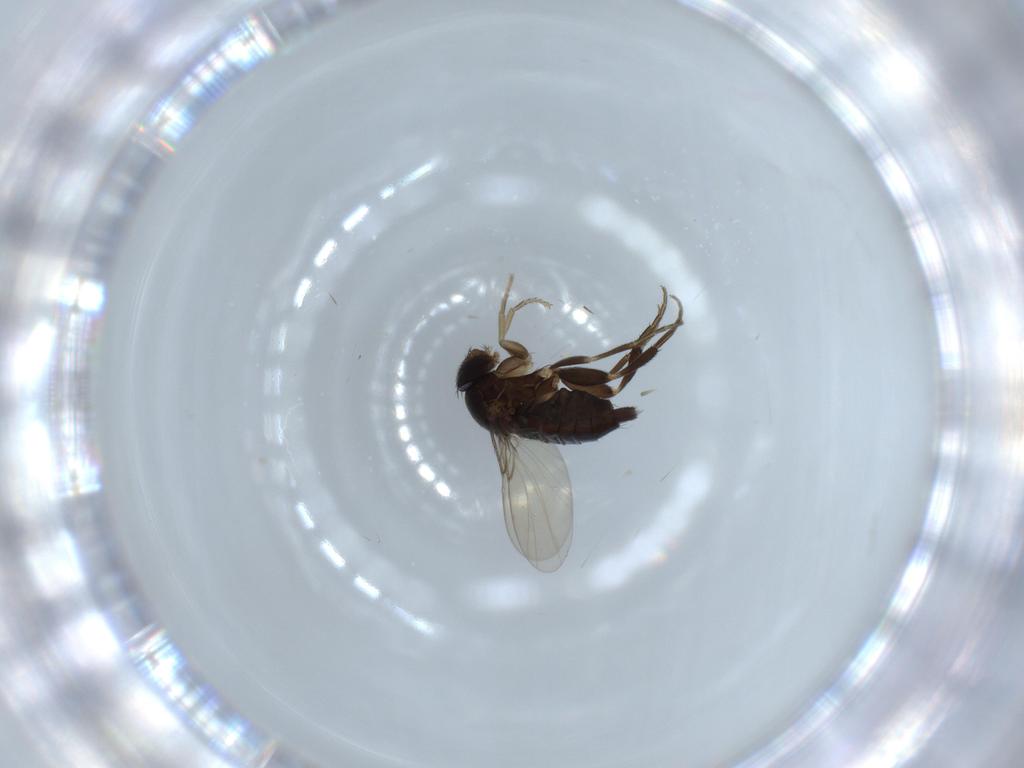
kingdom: Animalia
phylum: Arthropoda
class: Insecta
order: Diptera
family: Phoridae
